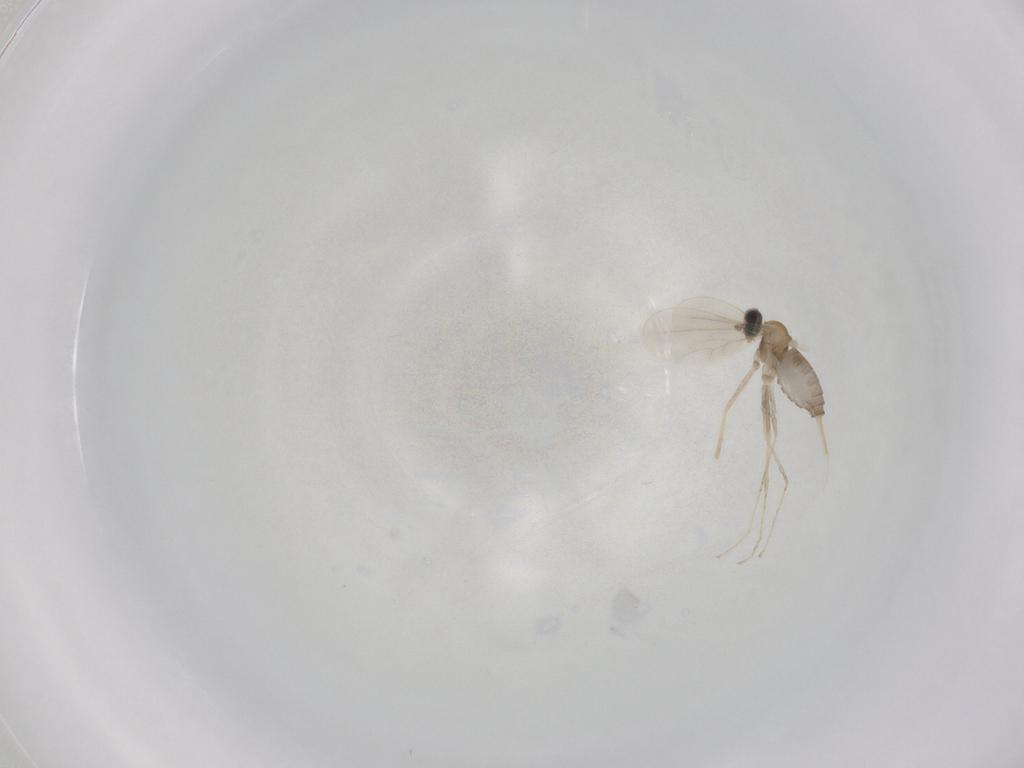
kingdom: Animalia
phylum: Arthropoda
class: Insecta
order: Diptera
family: Cecidomyiidae
